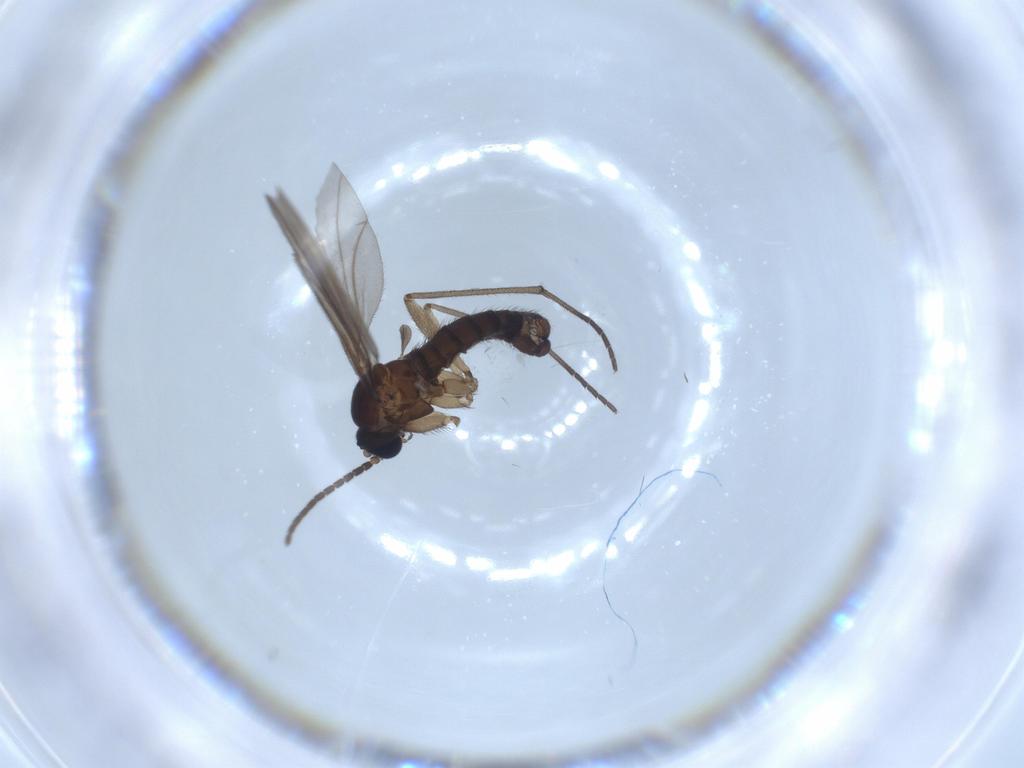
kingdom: Animalia
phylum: Arthropoda
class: Insecta
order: Diptera
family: Sciaridae
